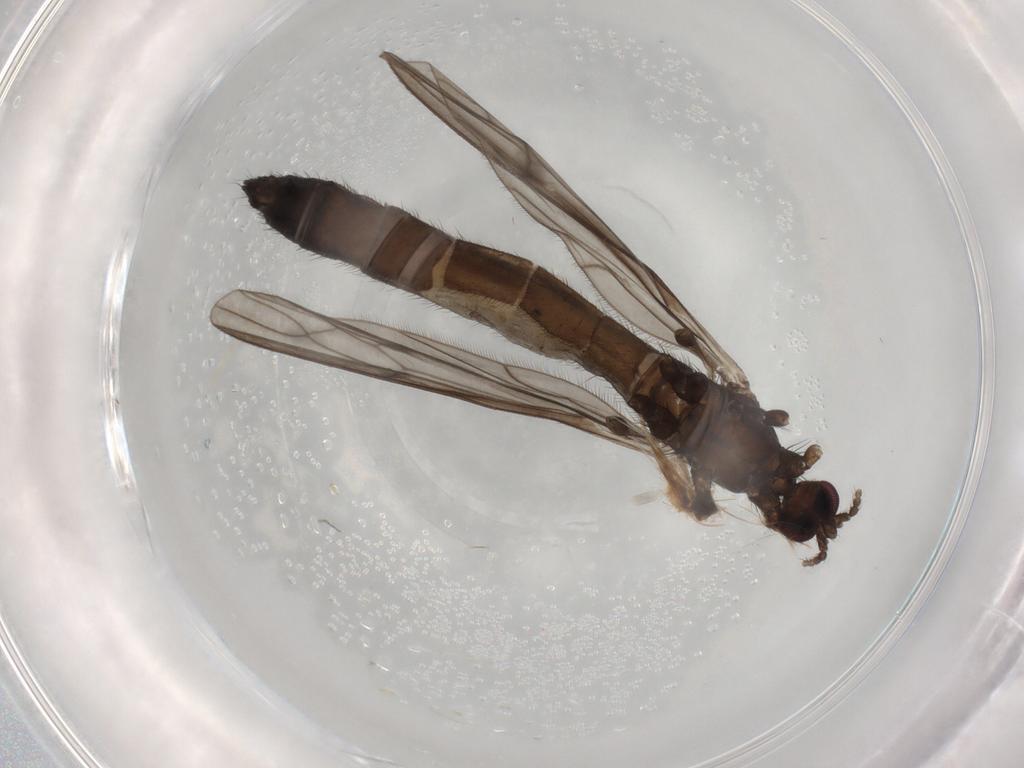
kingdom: Animalia
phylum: Arthropoda
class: Insecta
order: Diptera
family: Limoniidae
